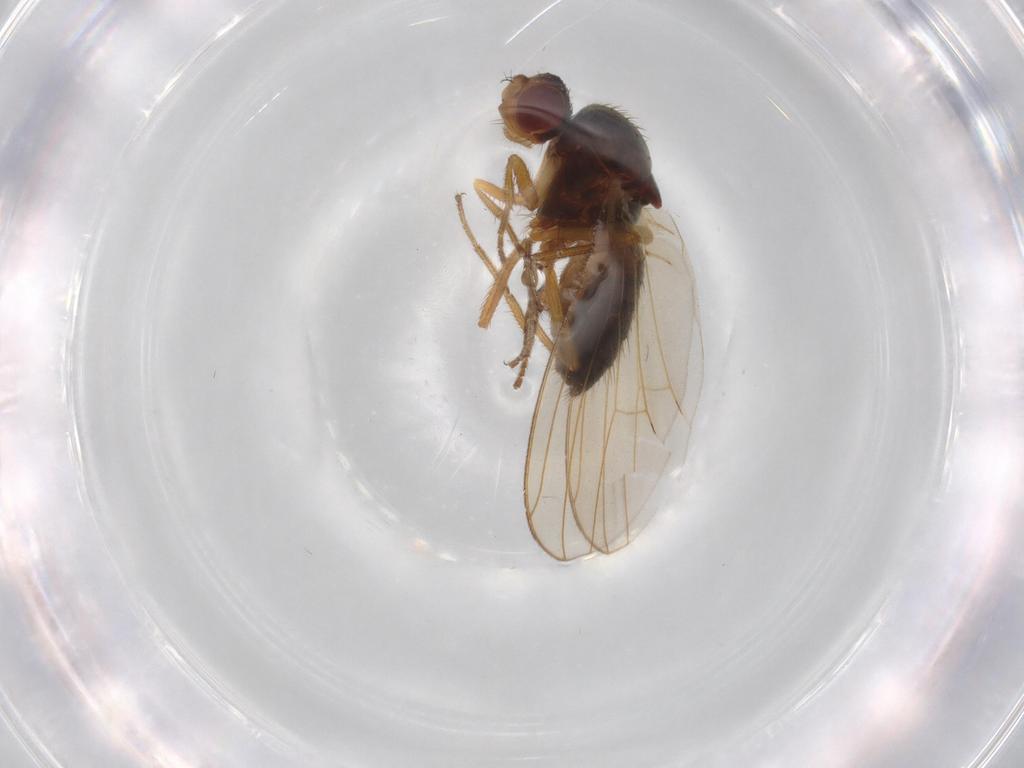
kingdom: Animalia
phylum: Arthropoda
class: Insecta
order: Diptera
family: Drosophilidae
